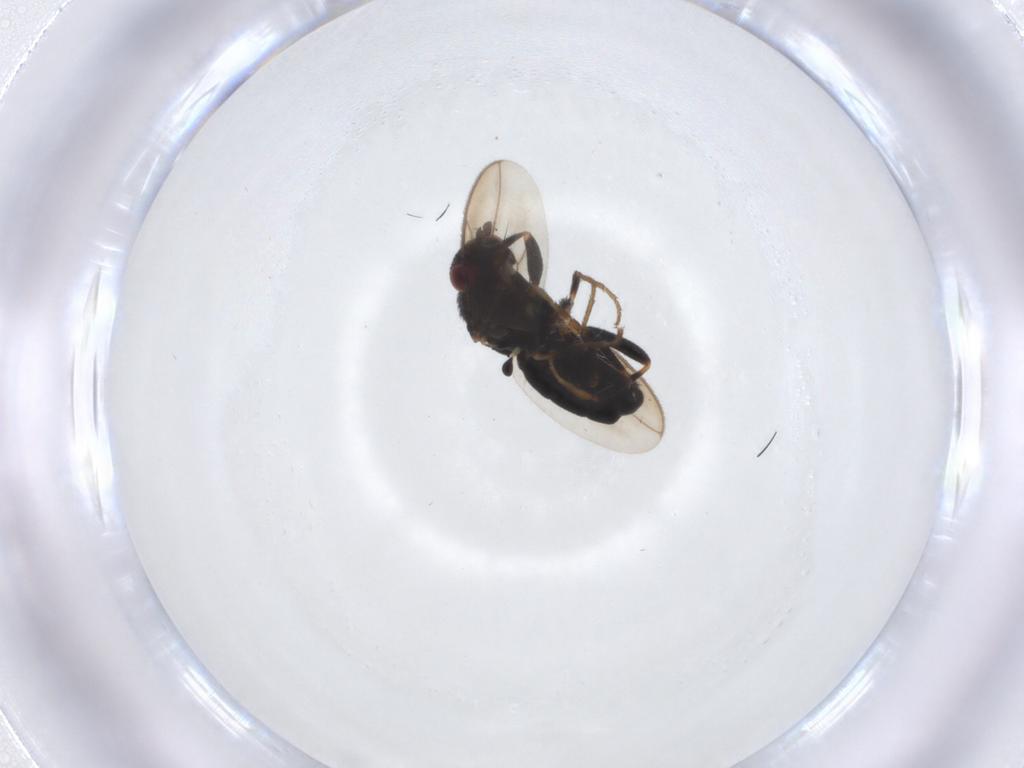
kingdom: Animalia
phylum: Arthropoda
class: Insecta
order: Diptera
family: Sphaeroceridae
